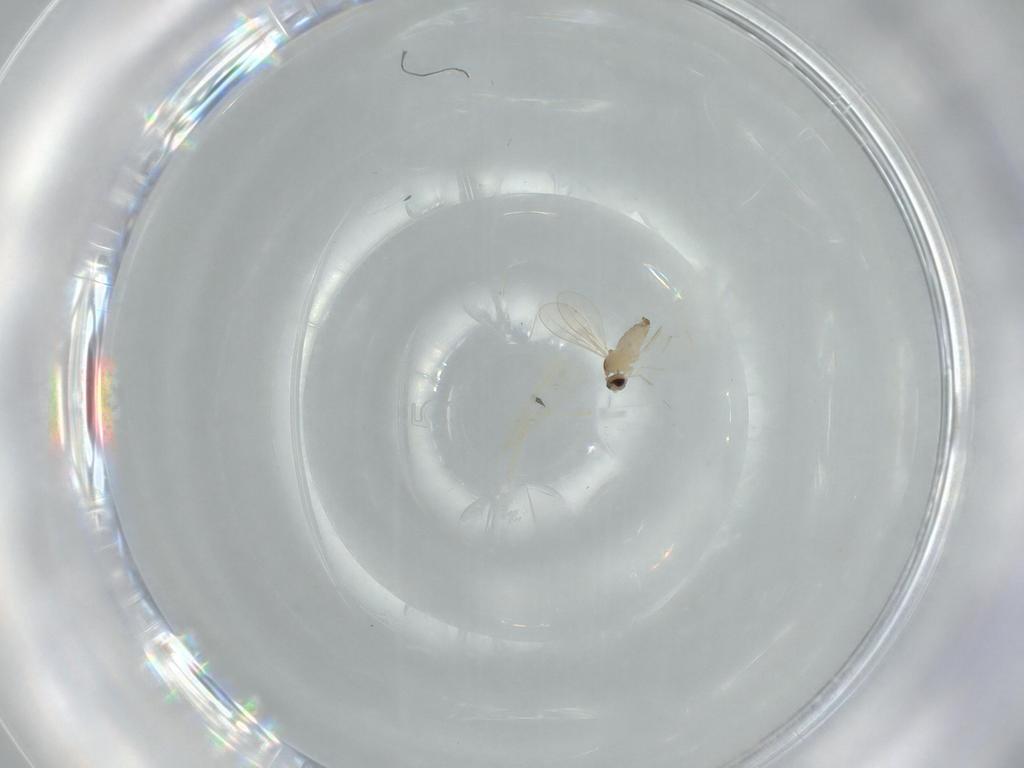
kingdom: Animalia
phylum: Arthropoda
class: Insecta
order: Diptera
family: Cecidomyiidae
